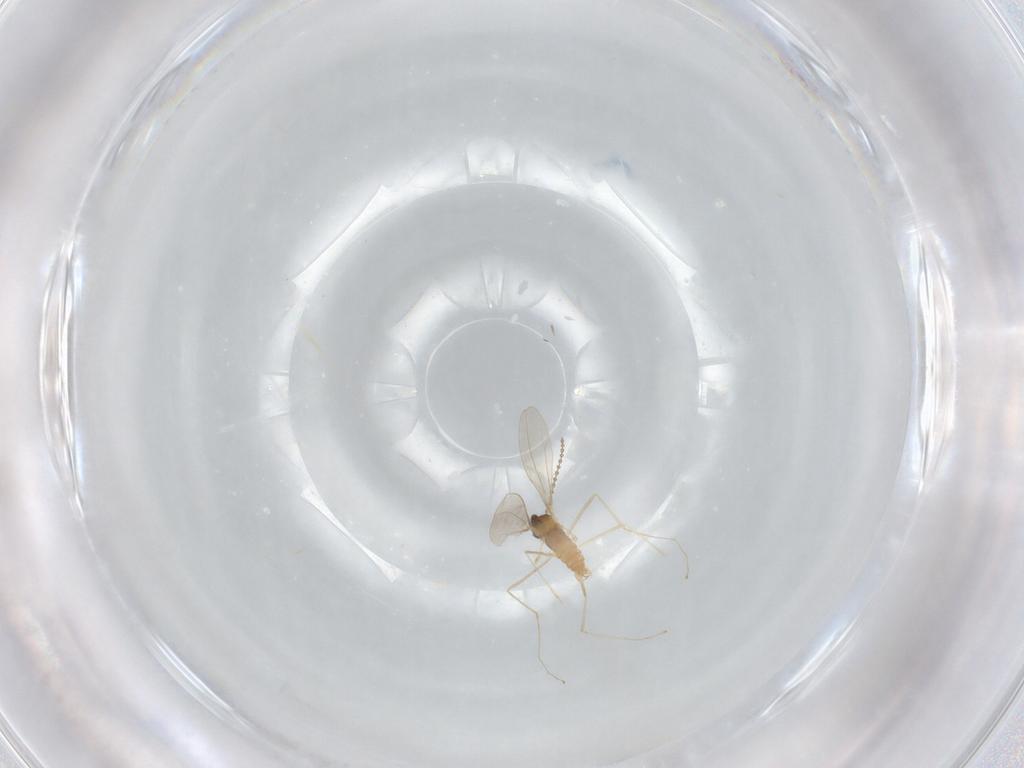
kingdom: Animalia
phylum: Arthropoda
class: Insecta
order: Diptera
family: Cecidomyiidae
